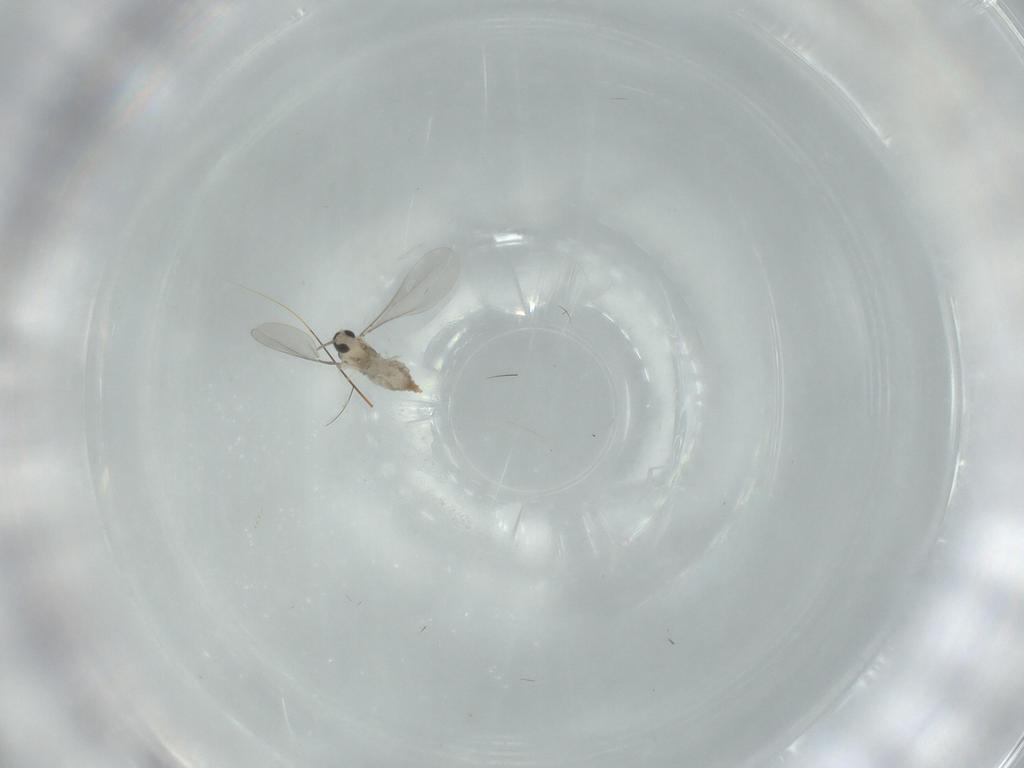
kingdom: Animalia
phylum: Arthropoda
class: Insecta
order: Diptera
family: Cecidomyiidae
